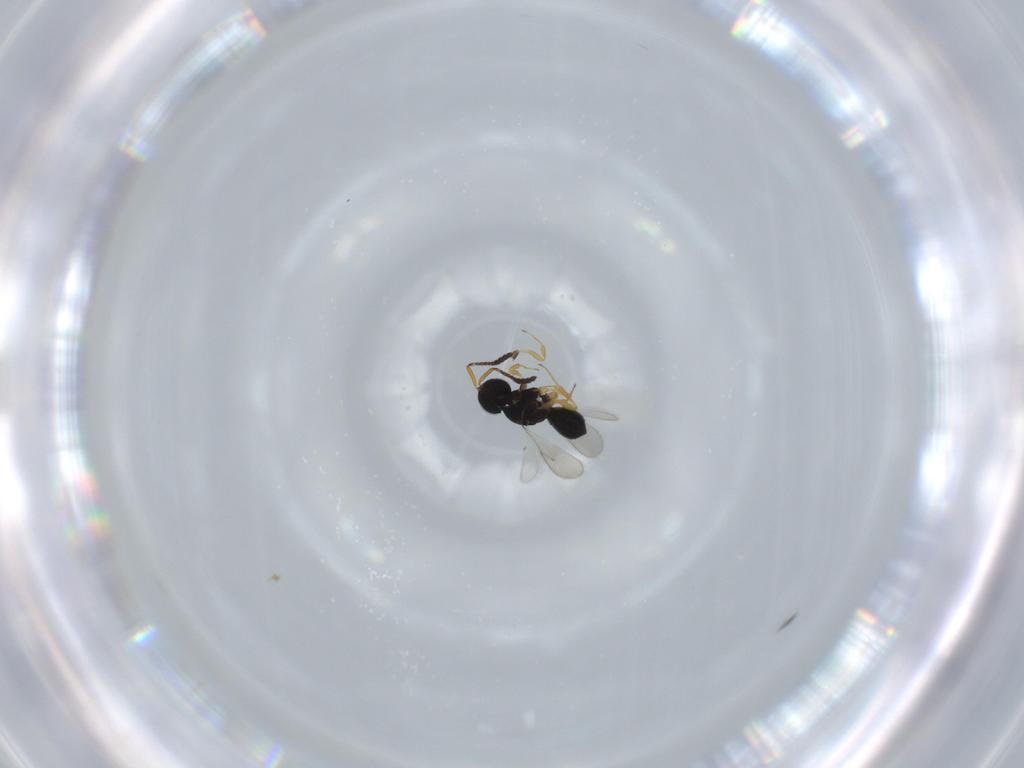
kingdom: Animalia
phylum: Arthropoda
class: Insecta
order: Hymenoptera
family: Scelionidae
